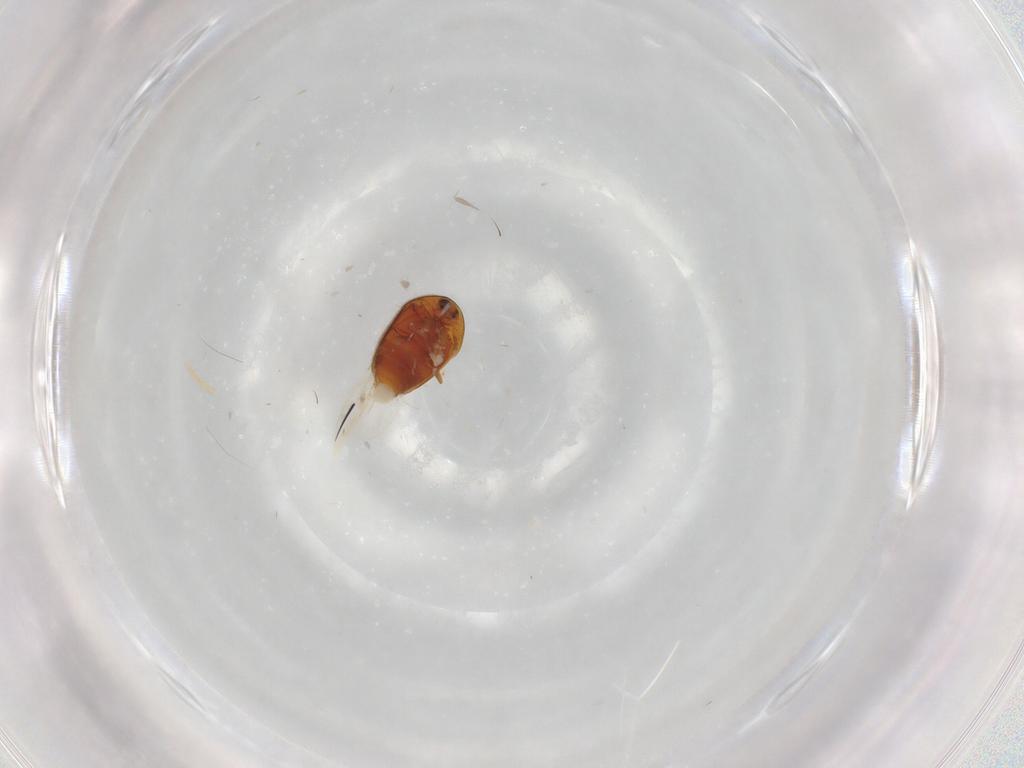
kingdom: Animalia
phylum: Arthropoda
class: Insecta
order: Coleoptera
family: Corylophidae
